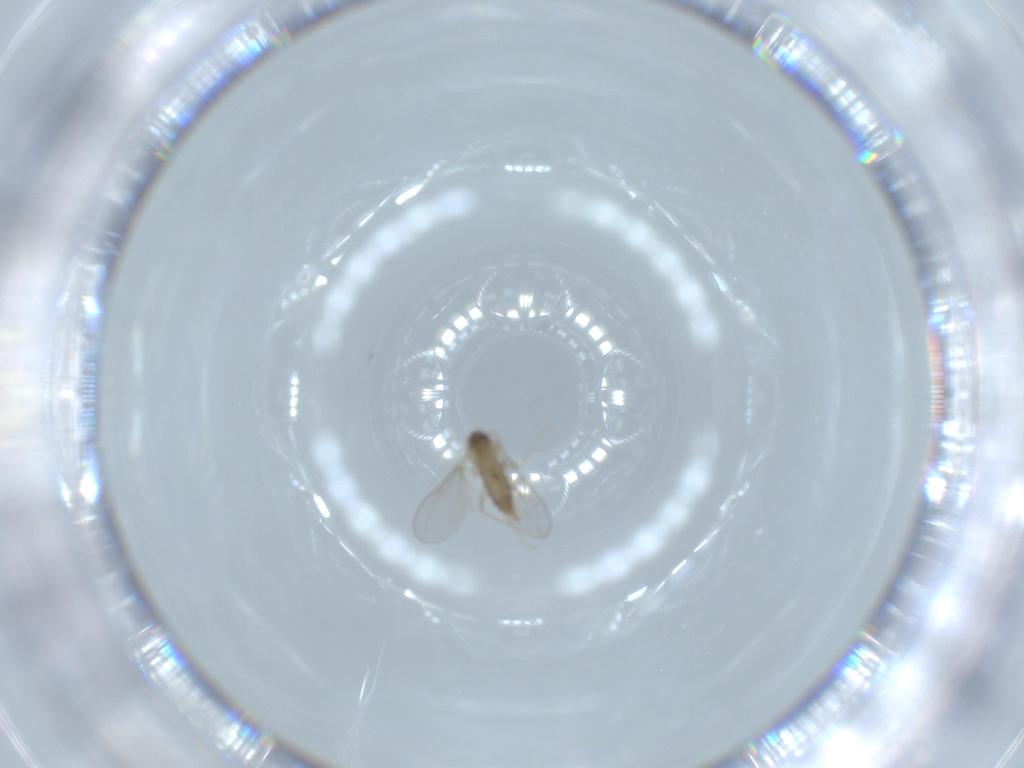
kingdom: Animalia
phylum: Arthropoda
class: Insecta
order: Diptera
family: Cecidomyiidae
